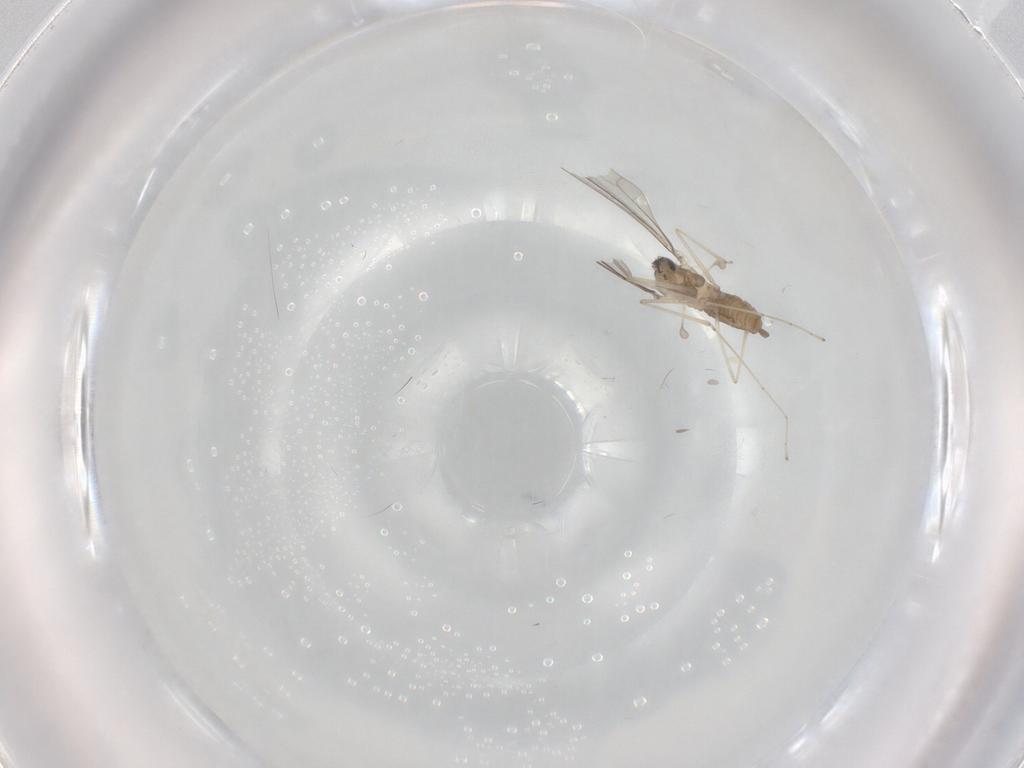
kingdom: Animalia
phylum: Arthropoda
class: Insecta
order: Diptera
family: Cecidomyiidae
